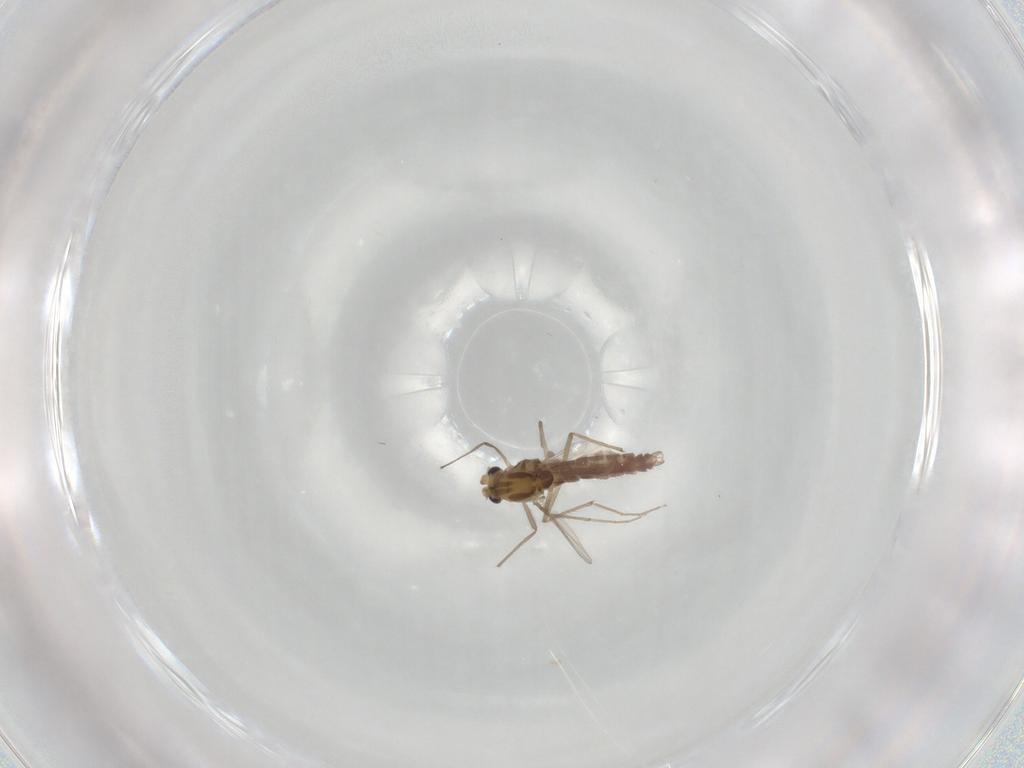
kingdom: Animalia
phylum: Arthropoda
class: Insecta
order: Diptera
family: Chironomidae
